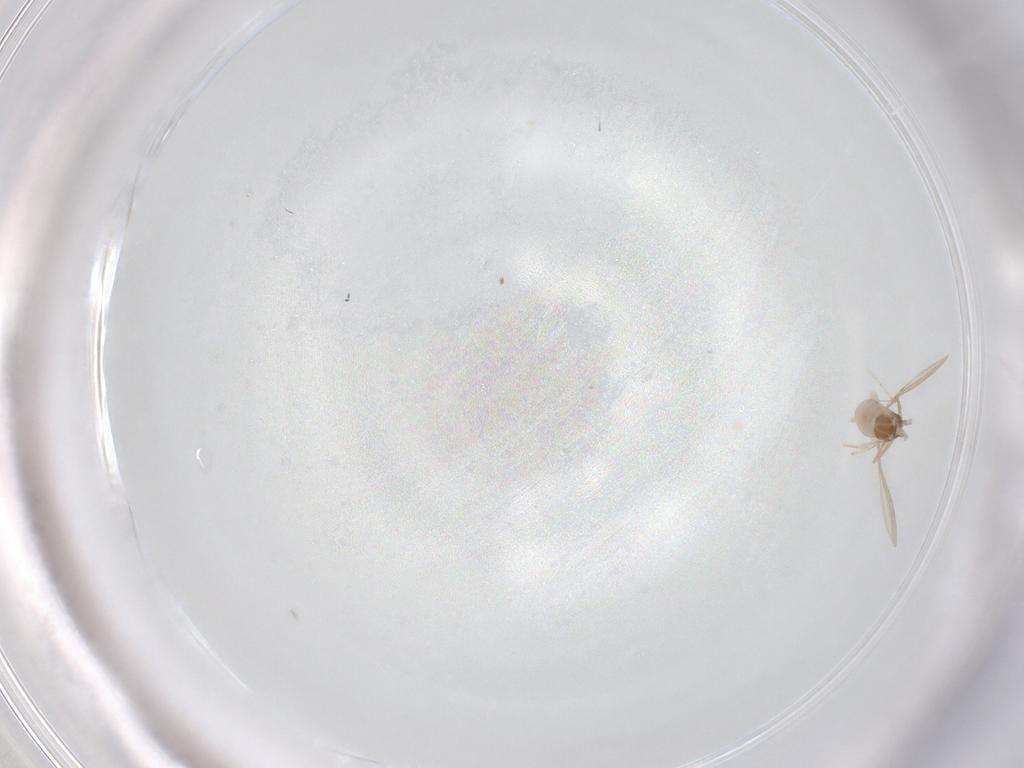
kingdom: Animalia
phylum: Arthropoda
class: Insecta
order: Diptera
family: Cecidomyiidae
